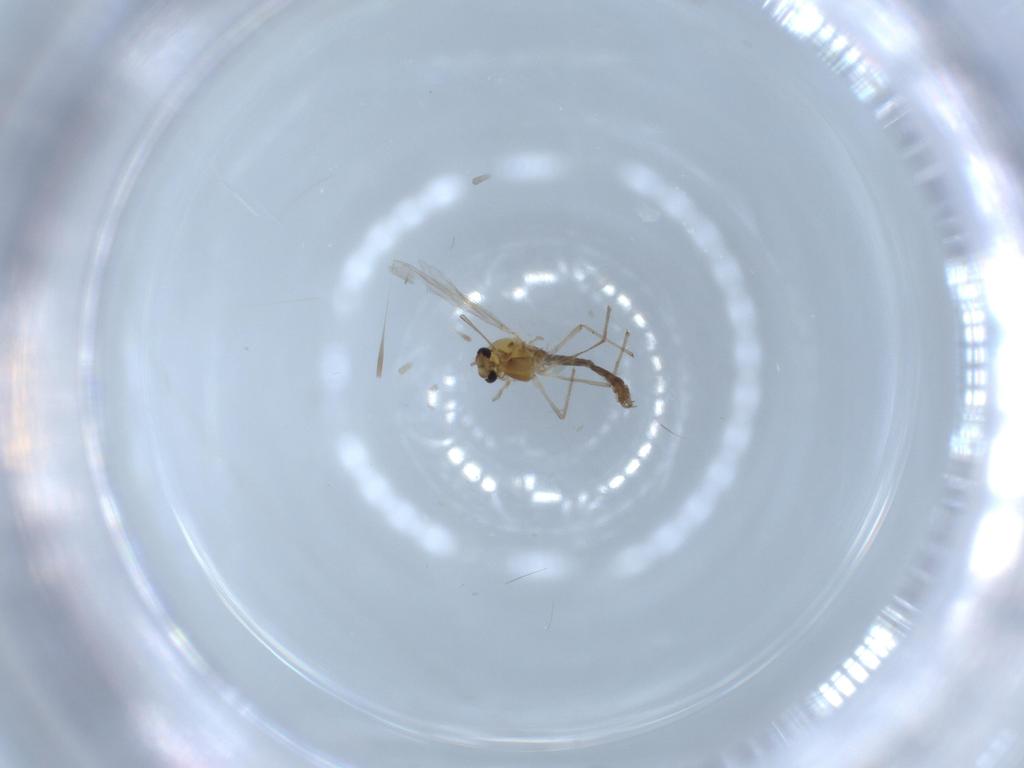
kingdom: Animalia
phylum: Arthropoda
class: Insecta
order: Diptera
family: Chironomidae
